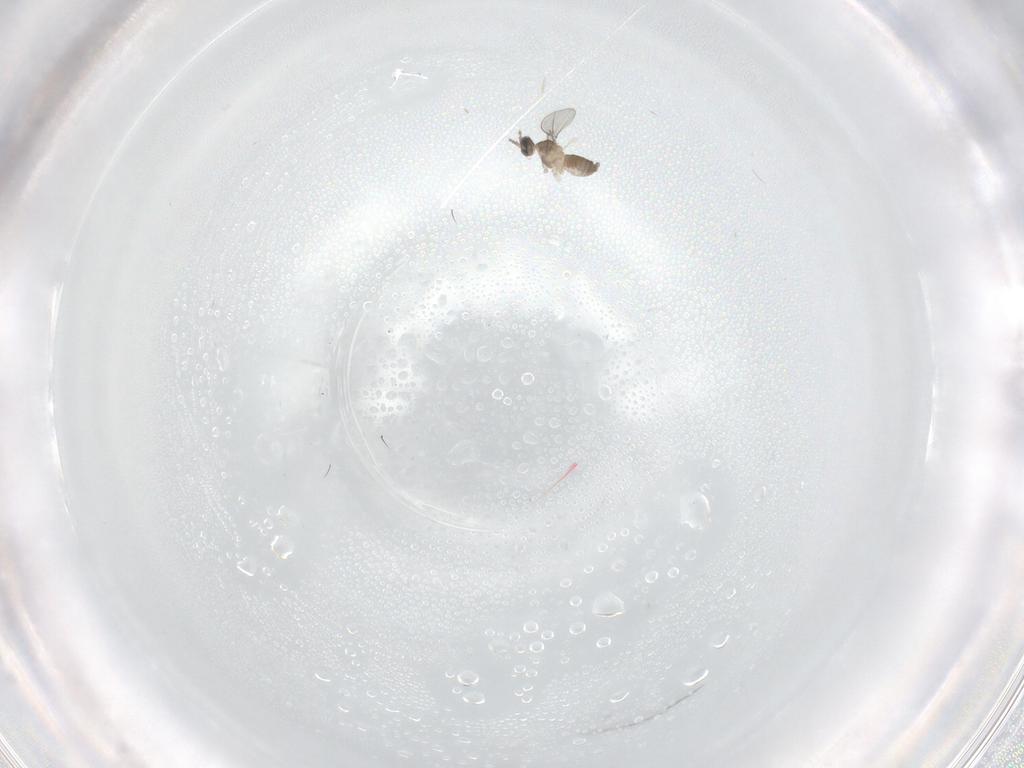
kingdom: Animalia
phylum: Arthropoda
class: Insecta
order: Diptera
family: Cecidomyiidae
